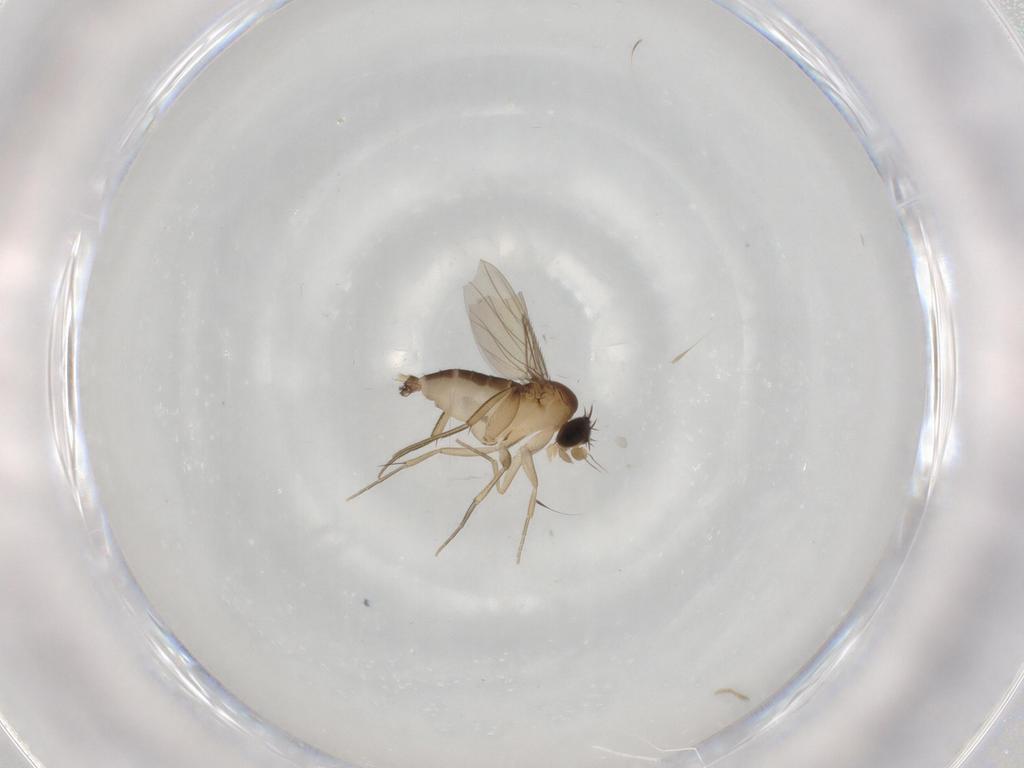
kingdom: Animalia
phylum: Arthropoda
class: Insecta
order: Diptera
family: Phoridae
